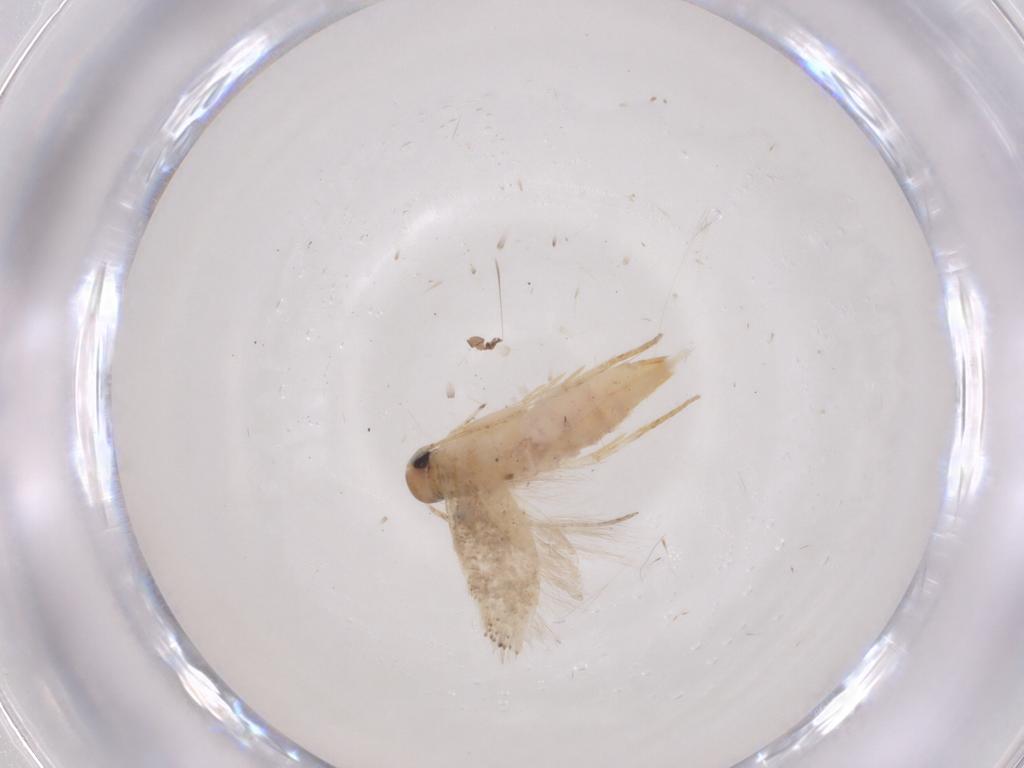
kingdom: Animalia
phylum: Arthropoda
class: Insecta
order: Lepidoptera
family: Gelechiidae
